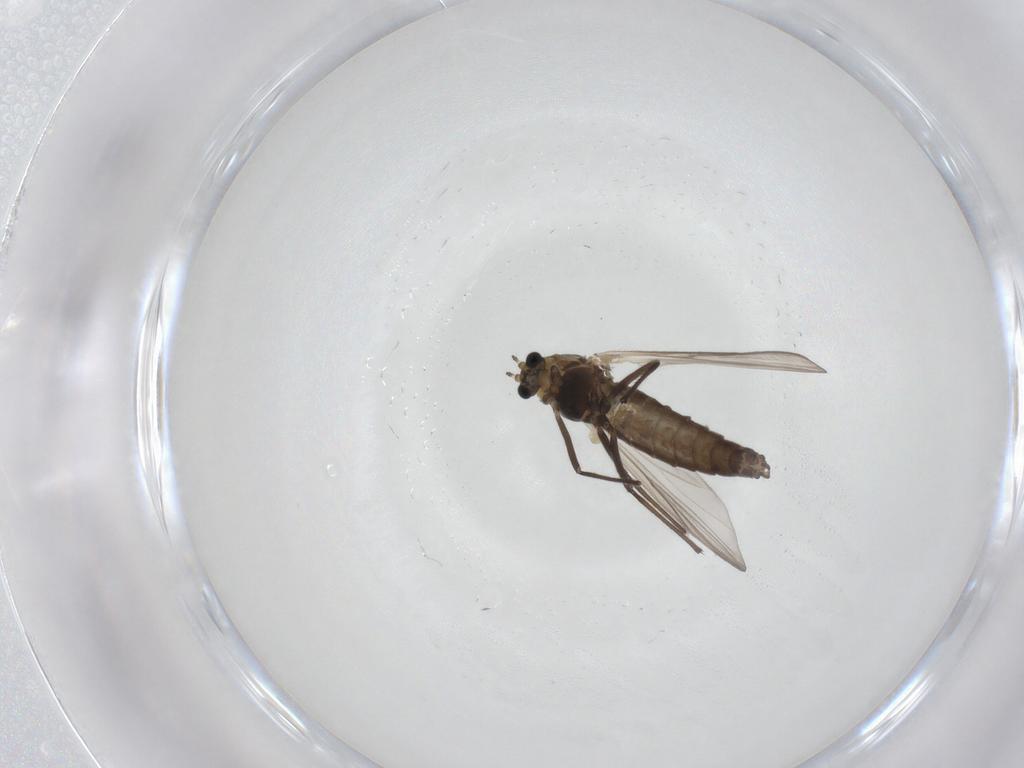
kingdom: Animalia
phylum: Arthropoda
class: Insecta
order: Diptera
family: Chironomidae
